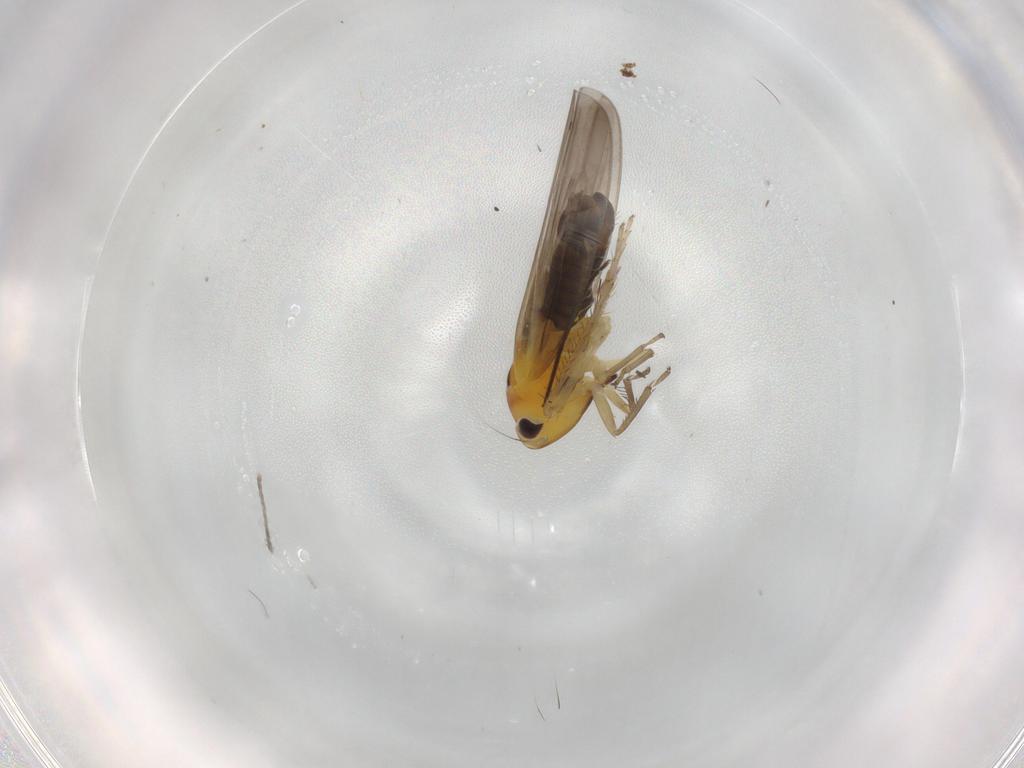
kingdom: Animalia
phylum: Arthropoda
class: Insecta
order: Hemiptera
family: Cicadellidae
